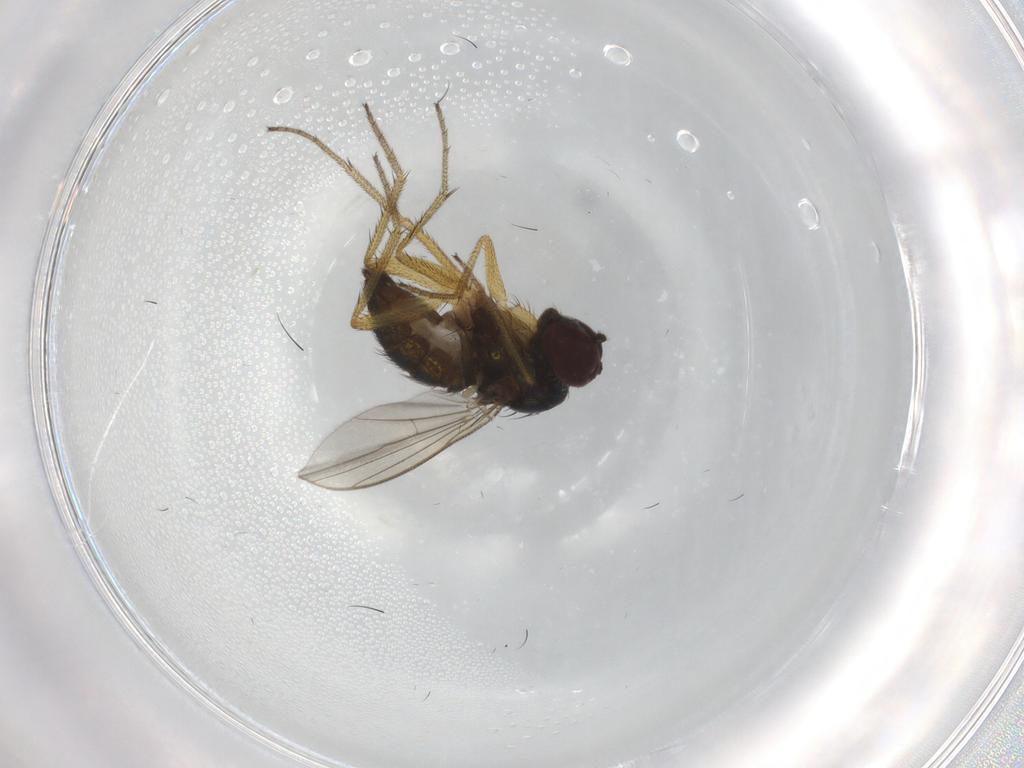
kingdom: Animalia
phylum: Arthropoda
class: Insecta
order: Diptera
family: Dolichopodidae
